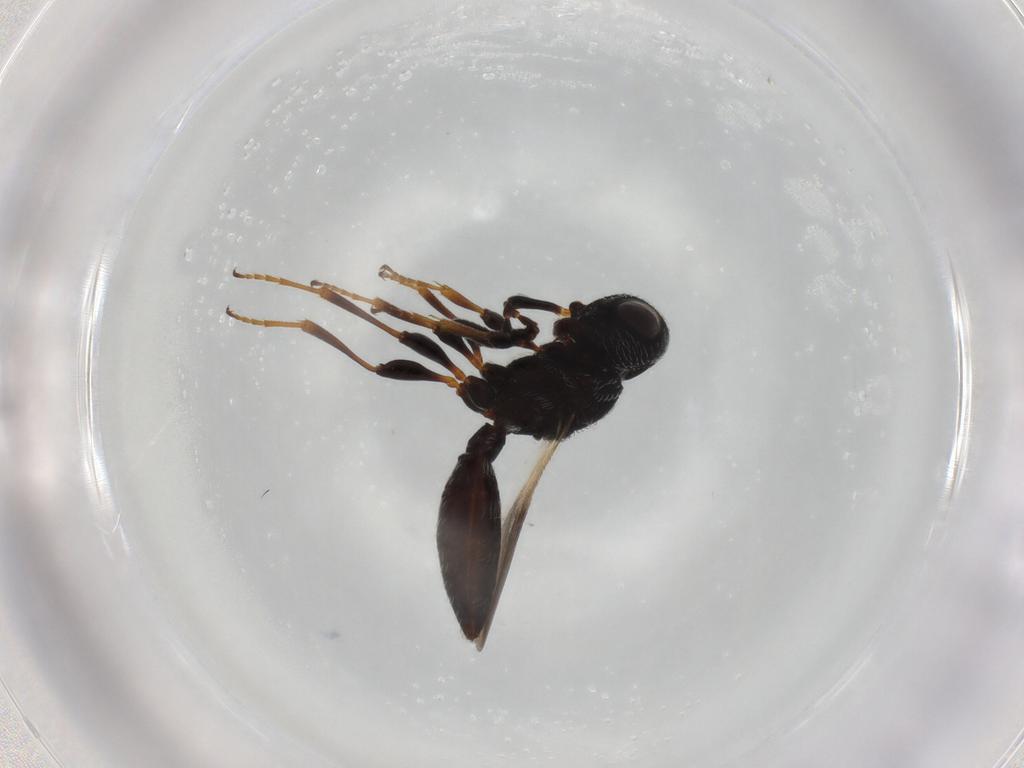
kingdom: Animalia
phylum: Arthropoda
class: Insecta
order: Hymenoptera
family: Scelionidae
